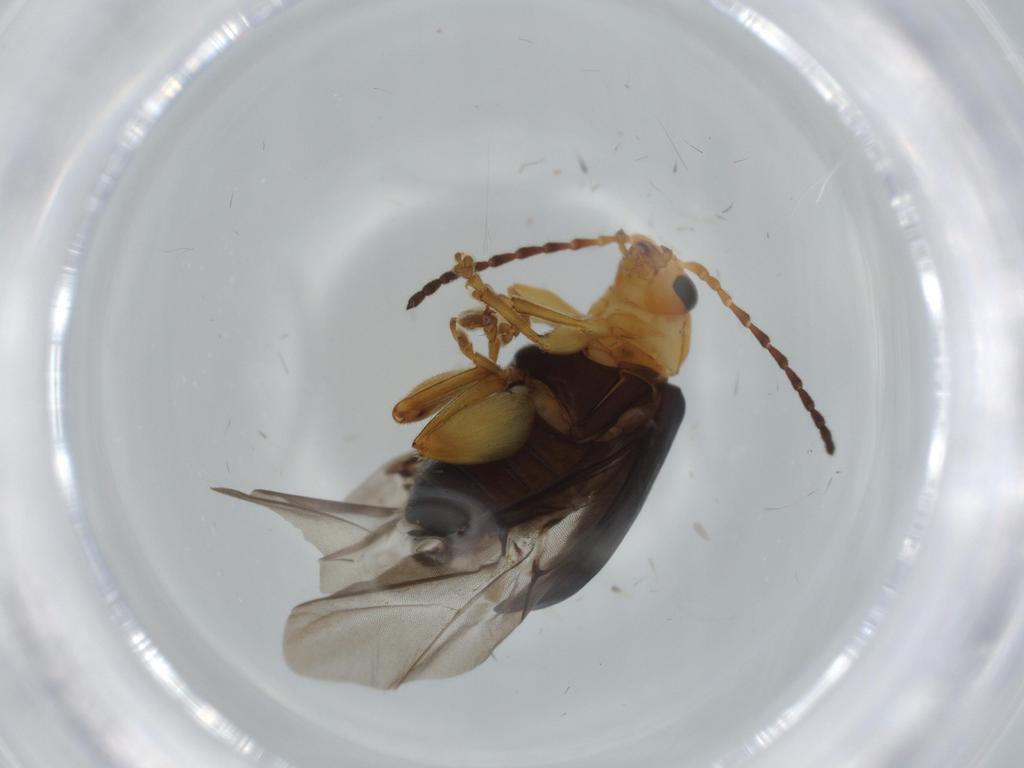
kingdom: Animalia
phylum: Arthropoda
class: Insecta
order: Coleoptera
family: Chrysomelidae
